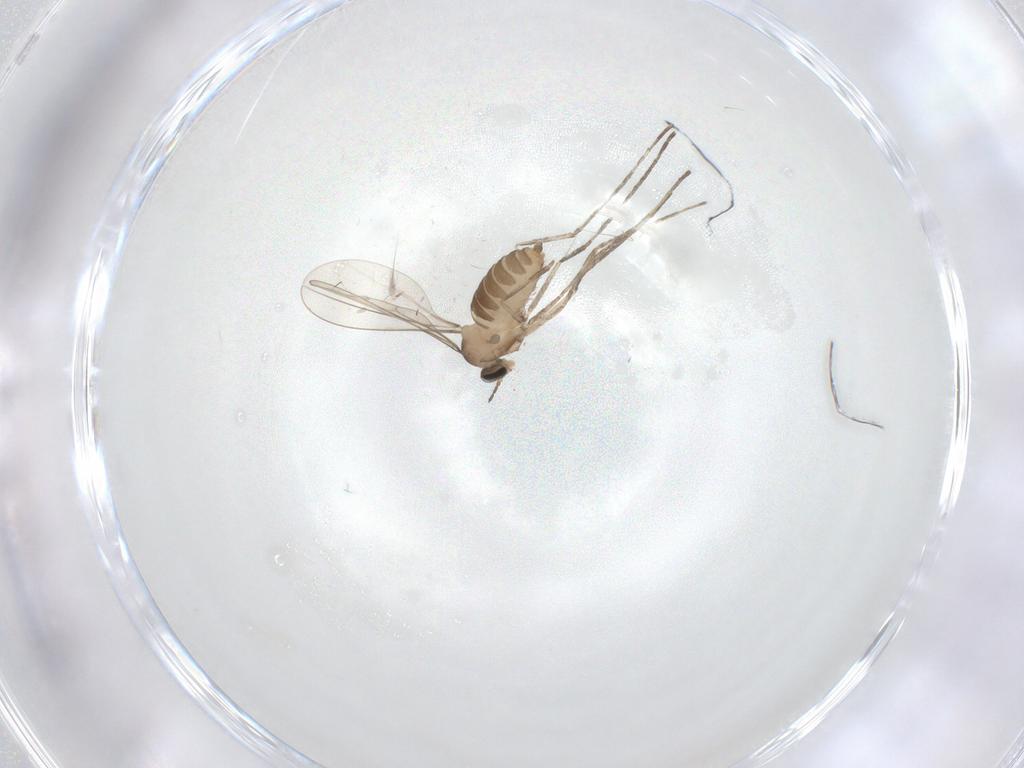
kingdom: Animalia
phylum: Arthropoda
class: Insecta
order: Diptera
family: Cecidomyiidae
